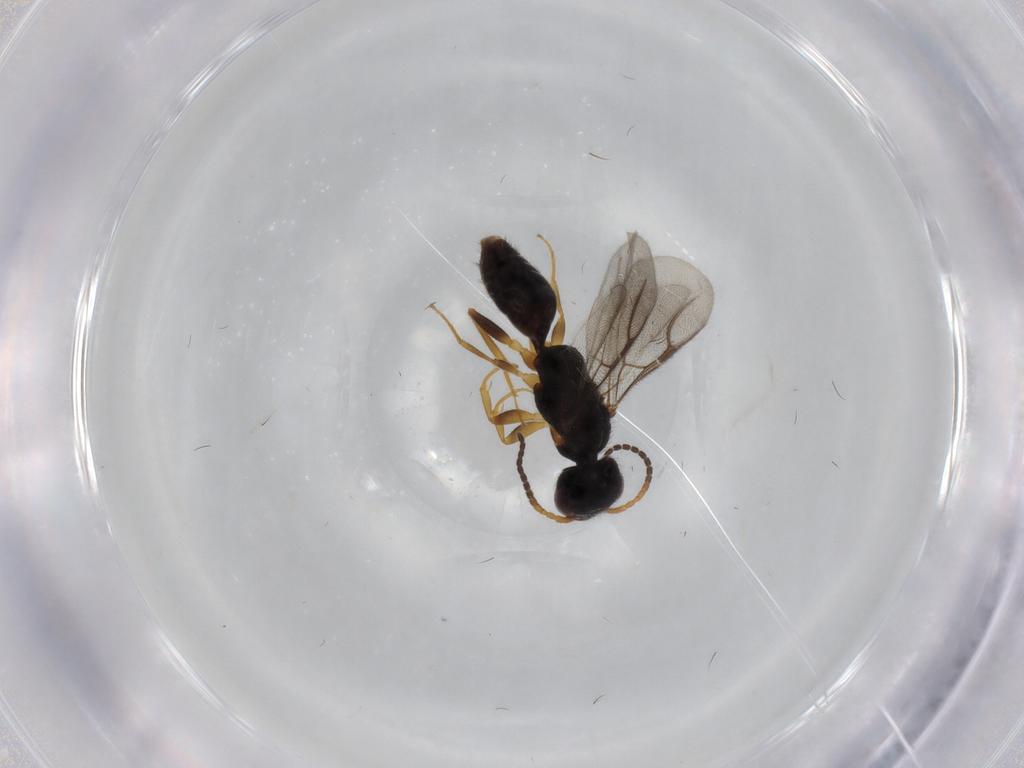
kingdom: Animalia
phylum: Arthropoda
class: Insecta
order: Hymenoptera
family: Bethylidae
